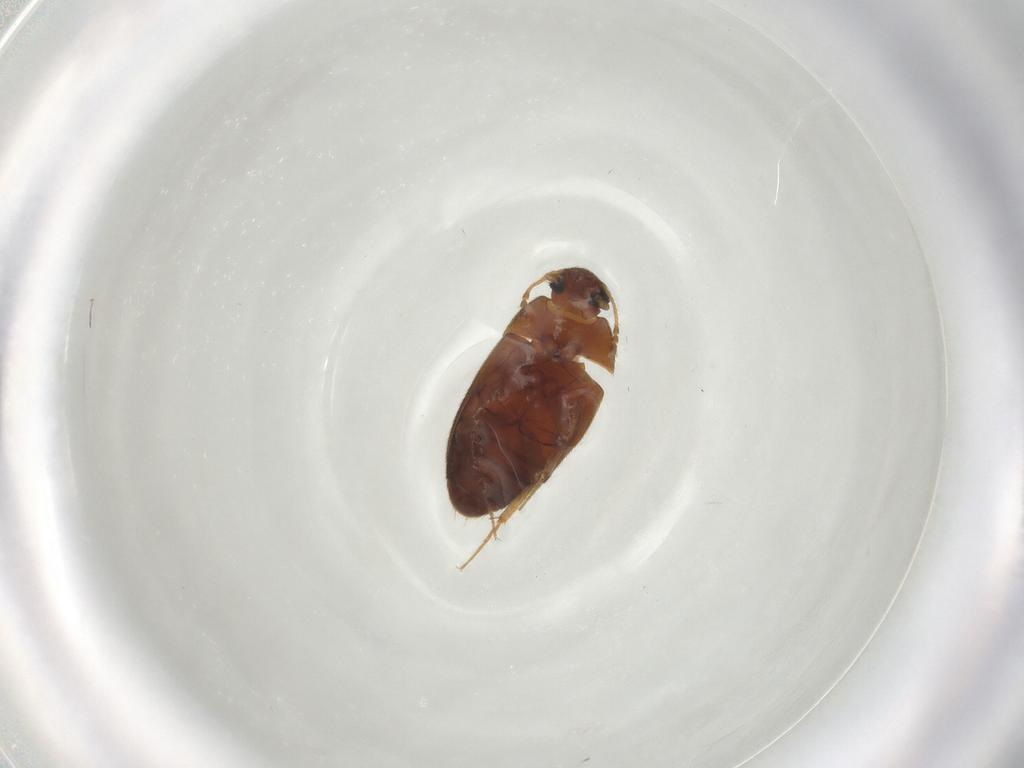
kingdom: Animalia
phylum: Arthropoda
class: Insecta
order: Coleoptera
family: Mycetophagidae
